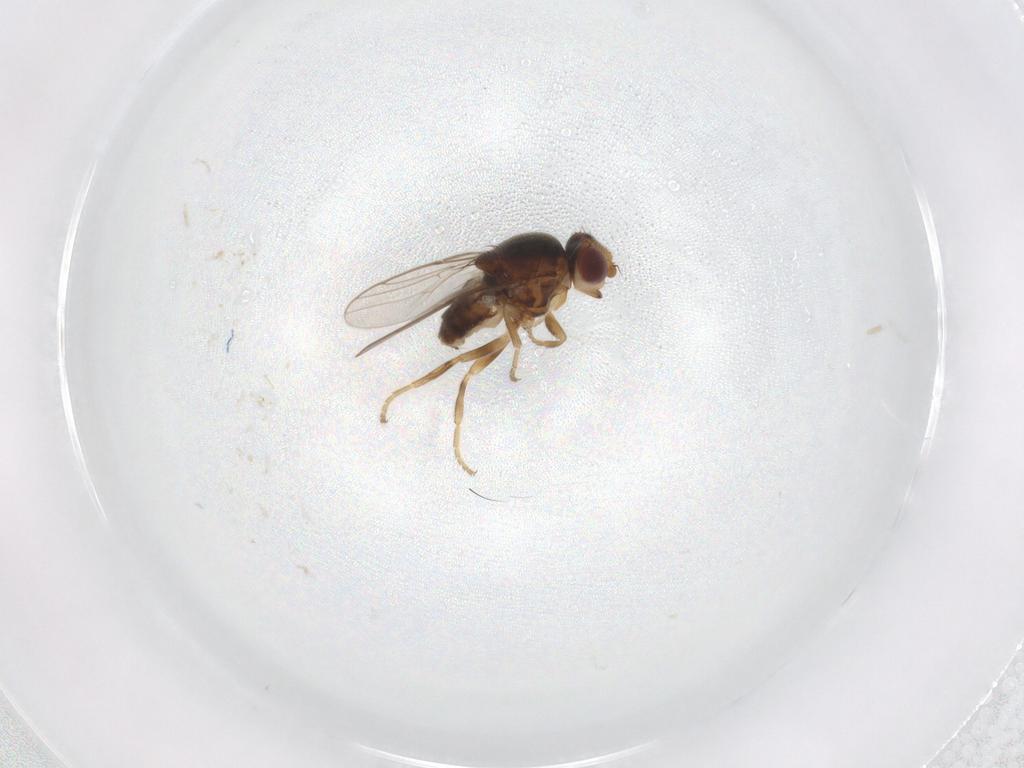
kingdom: Animalia
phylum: Arthropoda
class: Insecta
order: Diptera
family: Chloropidae
